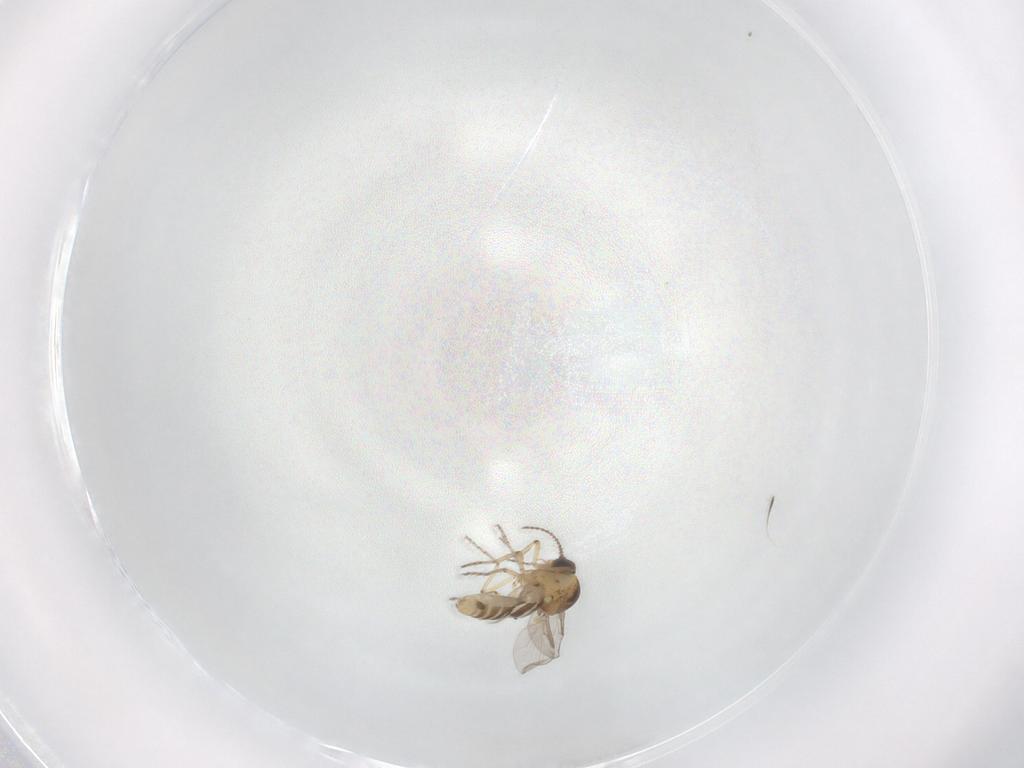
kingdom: Animalia
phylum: Arthropoda
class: Insecta
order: Diptera
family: Ceratopogonidae
